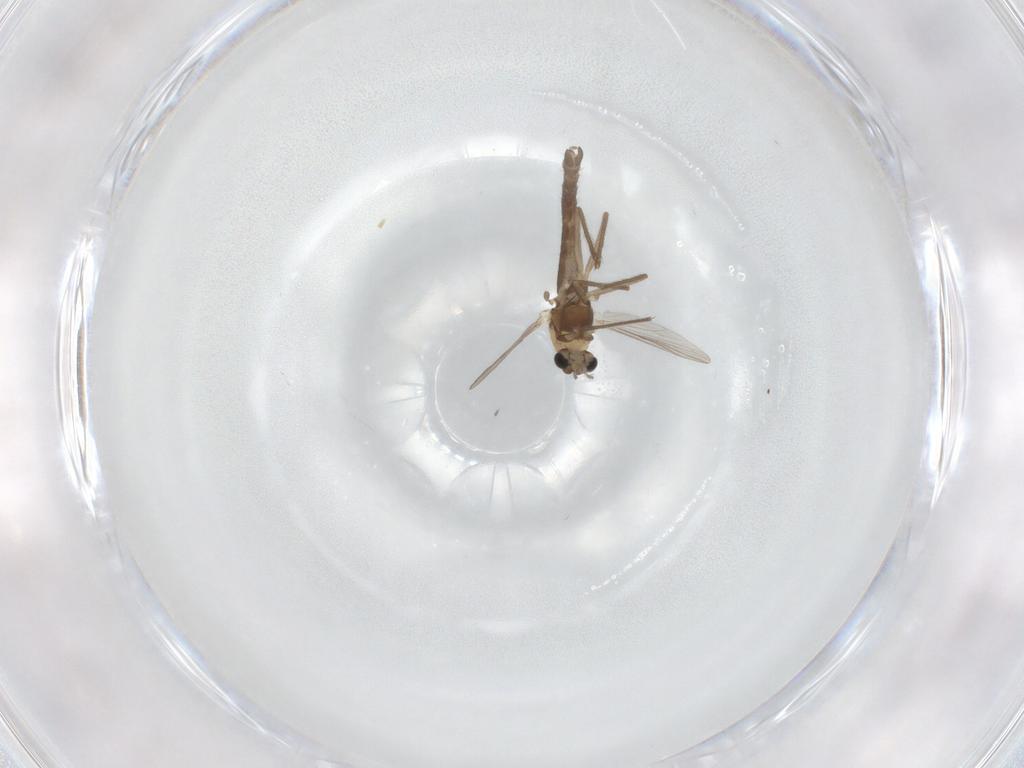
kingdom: Animalia
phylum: Arthropoda
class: Insecta
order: Diptera
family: Chironomidae
